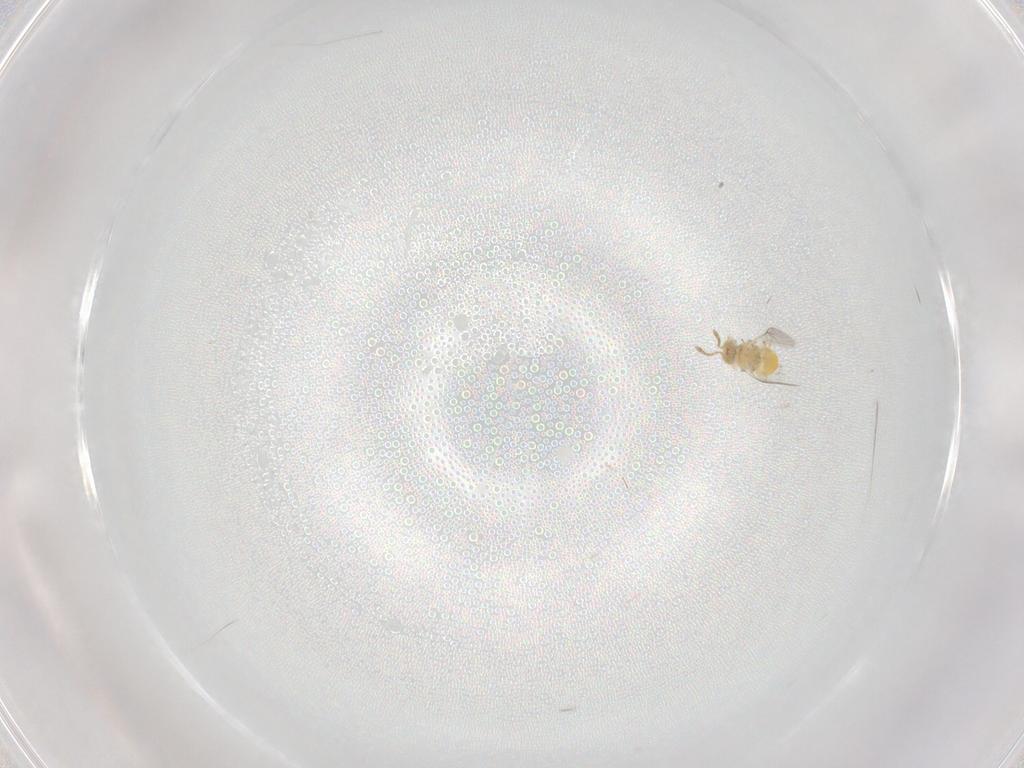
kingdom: Animalia
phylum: Arthropoda
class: Insecta
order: Hymenoptera
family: Encyrtidae
